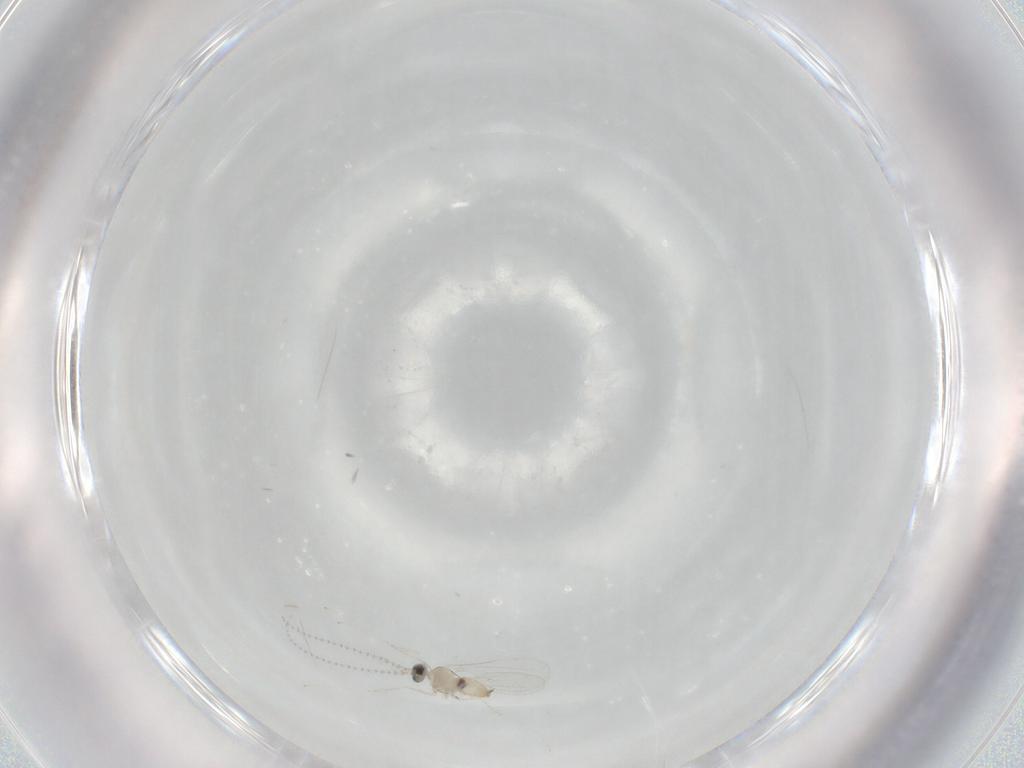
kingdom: Animalia
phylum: Arthropoda
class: Insecta
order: Diptera
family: Cecidomyiidae
